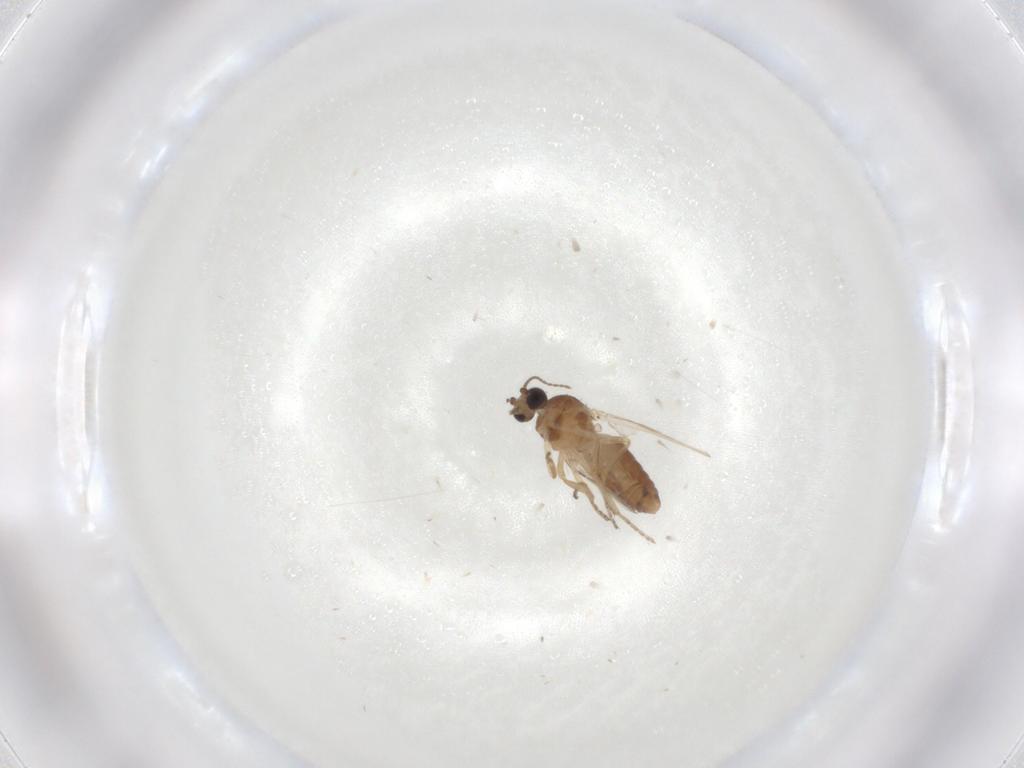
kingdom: Animalia
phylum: Arthropoda
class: Insecta
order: Diptera
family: Ceratopogonidae
